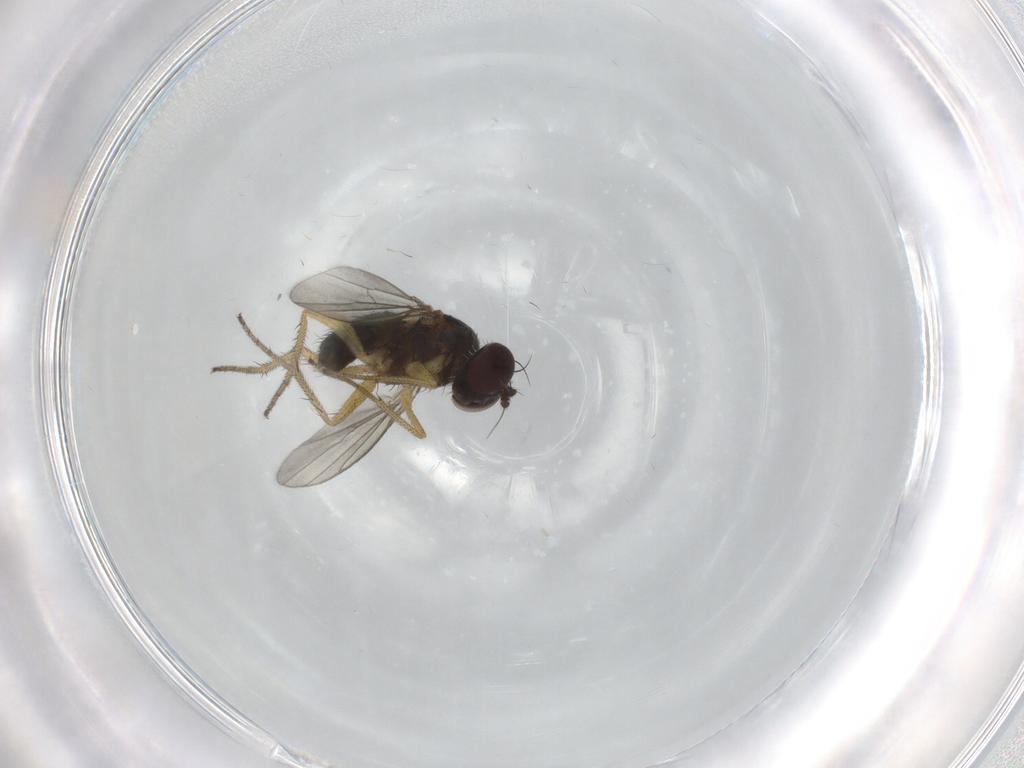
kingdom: Animalia
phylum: Arthropoda
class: Insecta
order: Diptera
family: Dolichopodidae
